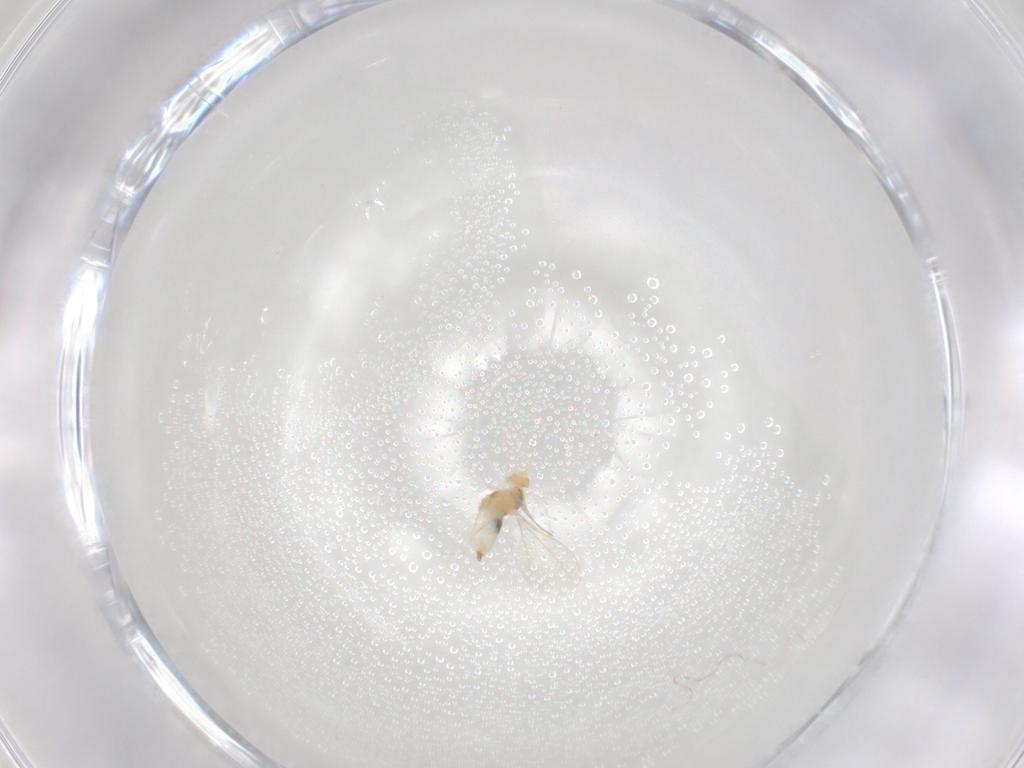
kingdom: Animalia
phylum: Arthropoda
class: Insecta
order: Diptera
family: Cecidomyiidae
